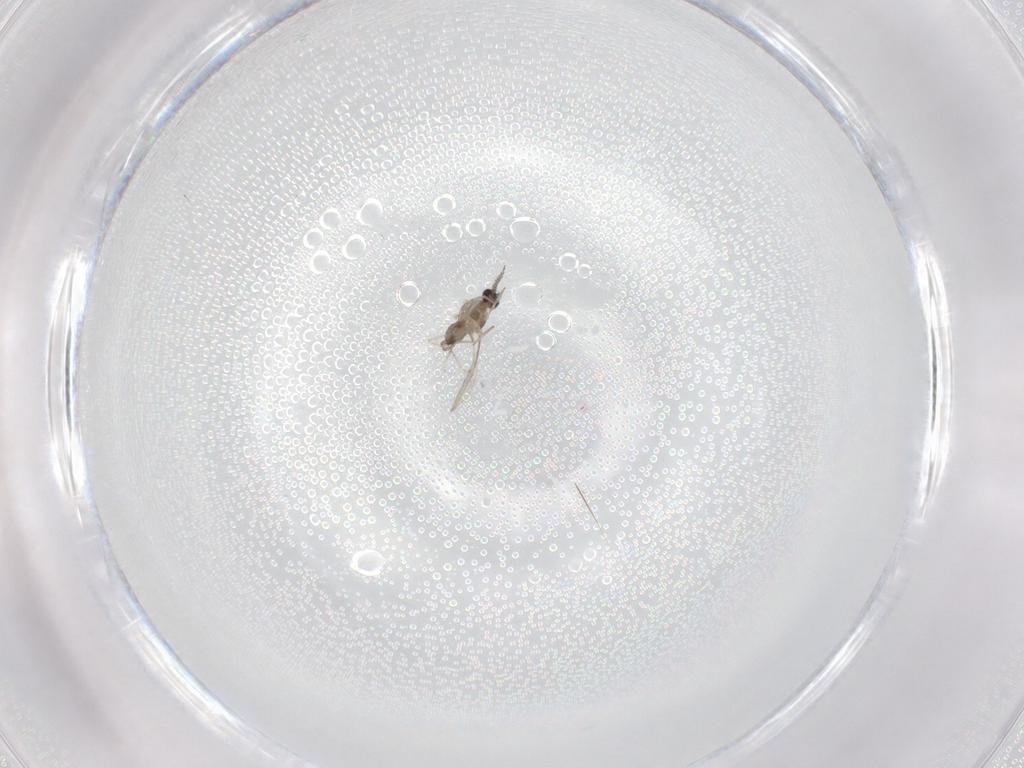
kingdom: Animalia
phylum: Arthropoda
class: Insecta
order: Diptera
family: Cecidomyiidae
